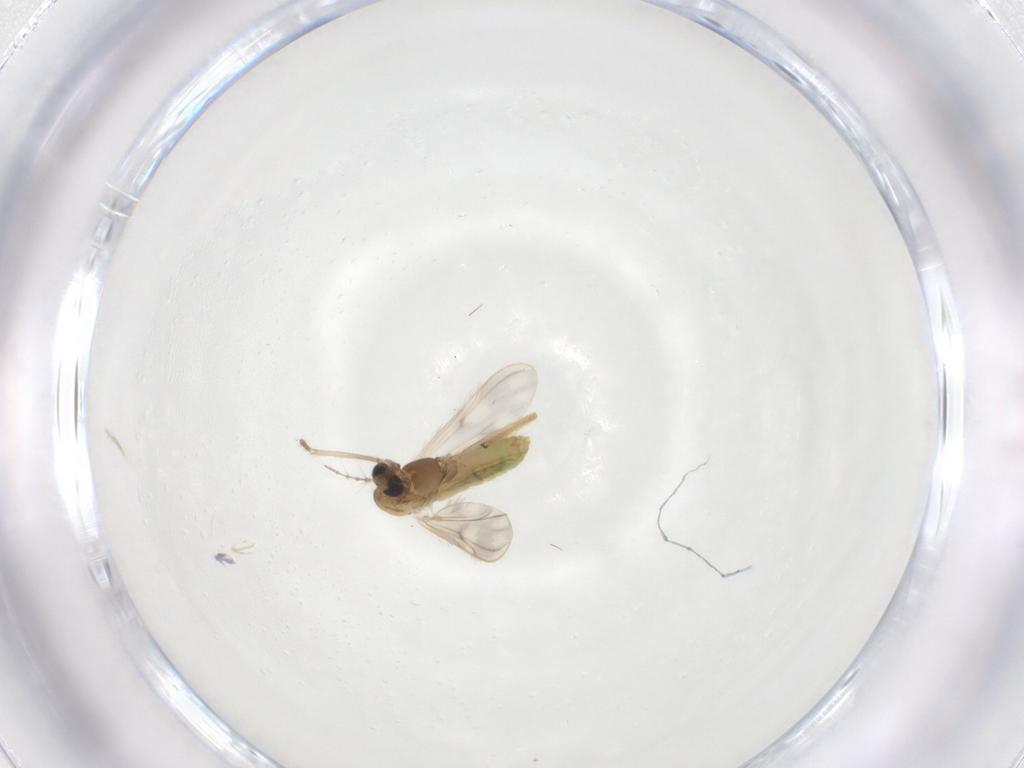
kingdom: Animalia
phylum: Arthropoda
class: Insecta
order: Diptera
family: Chironomidae
